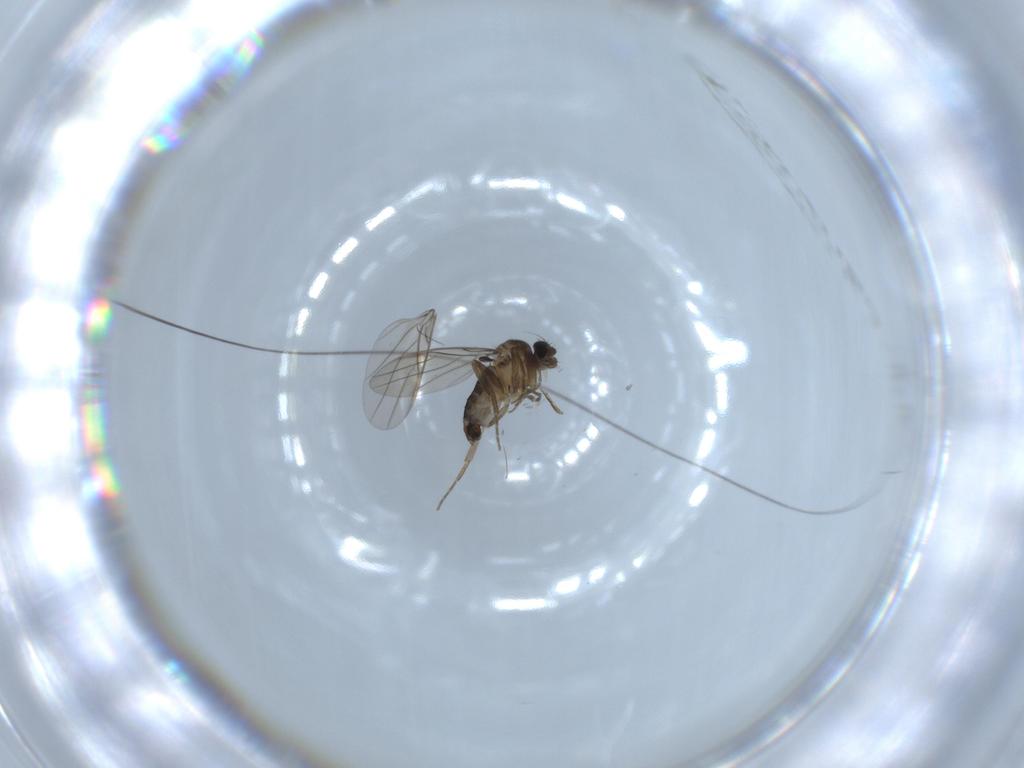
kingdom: Animalia
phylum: Arthropoda
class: Insecta
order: Diptera
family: Phoridae
